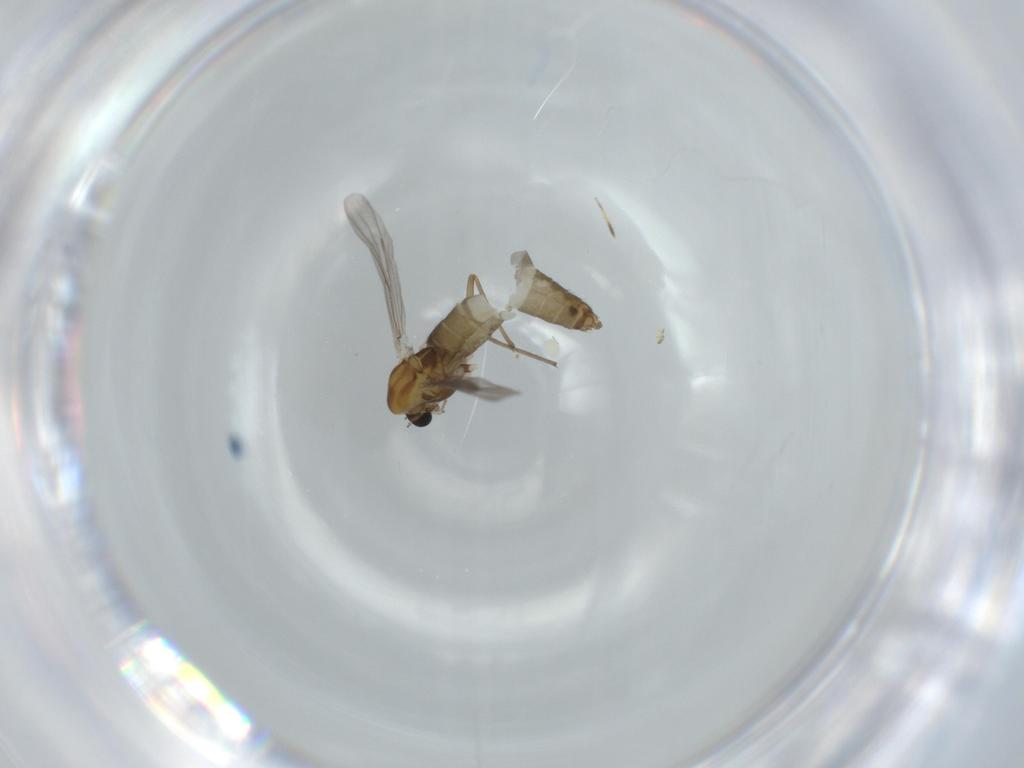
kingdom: Animalia
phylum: Arthropoda
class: Insecta
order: Diptera
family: Chironomidae
